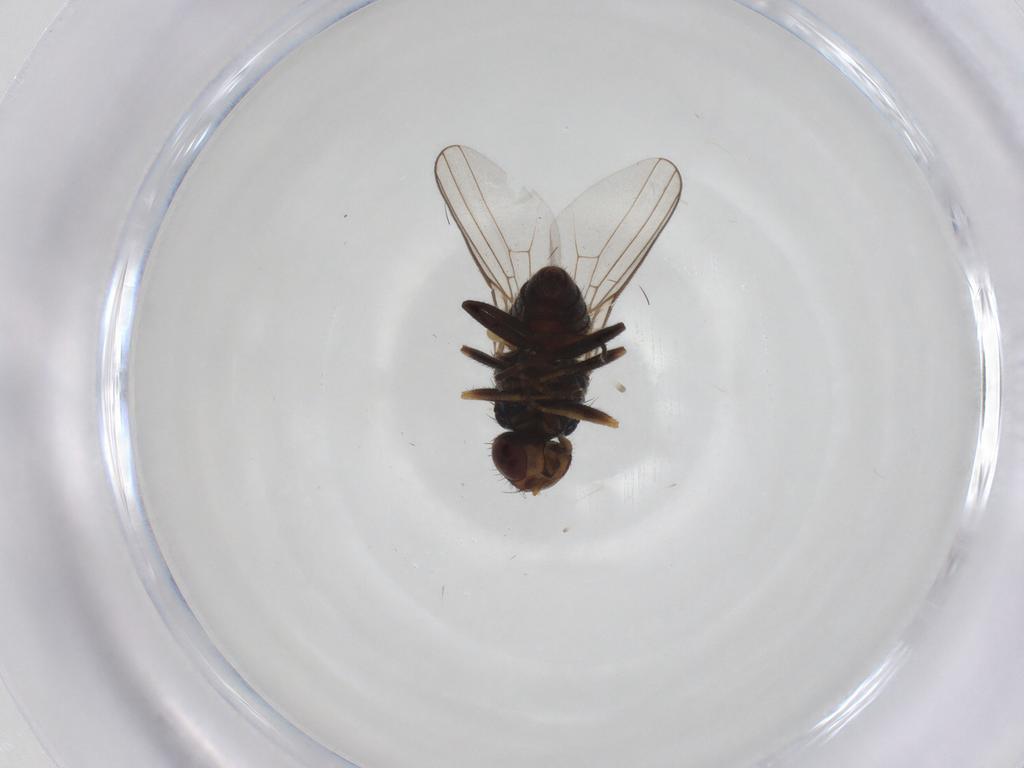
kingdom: Animalia
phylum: Arthropoda
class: Insecta
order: Diptera
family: Chloropidae
